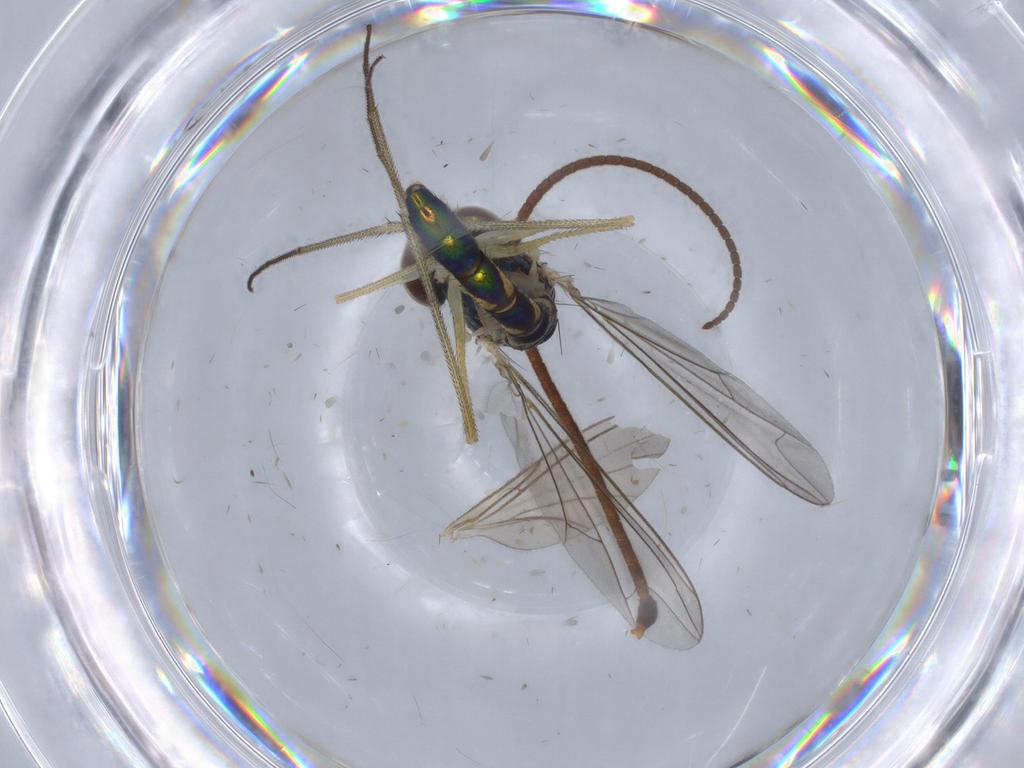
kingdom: Animalia
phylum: Arthropoda
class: Insecta
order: Diptera
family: Dolichopodidae
